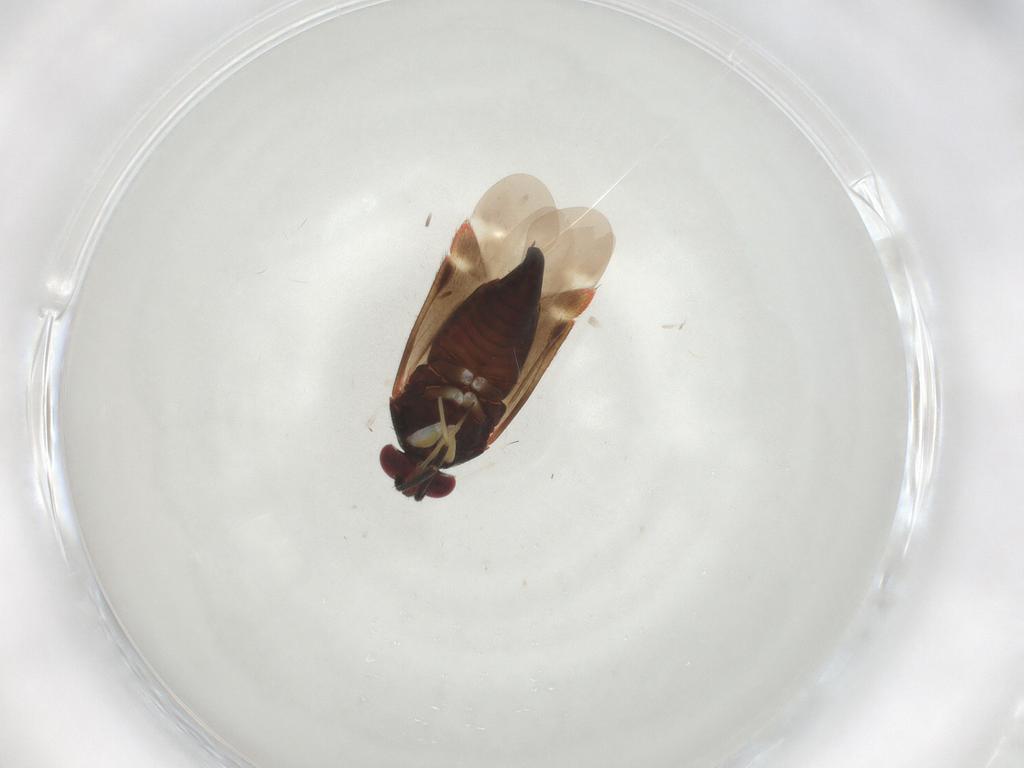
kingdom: Animalia
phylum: Arthropoda
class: Insecta
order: Hemiptera
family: Miridae
